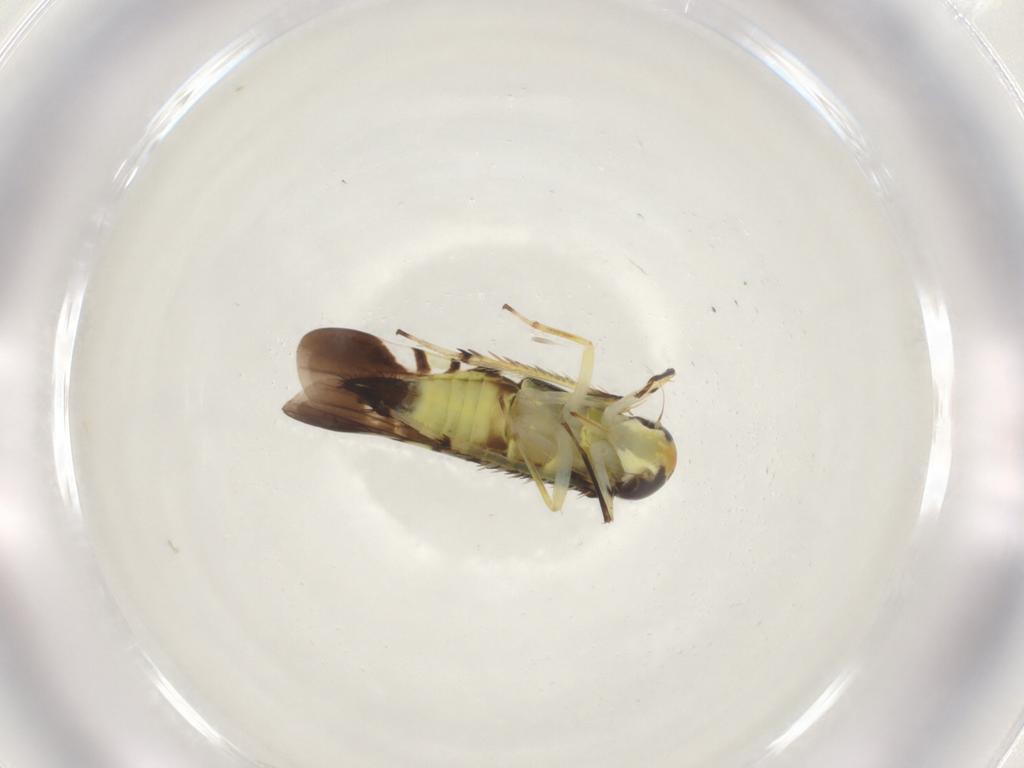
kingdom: Animalia
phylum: Arthropoda
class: Insecta
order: Hemiptera
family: Cicadellidae
